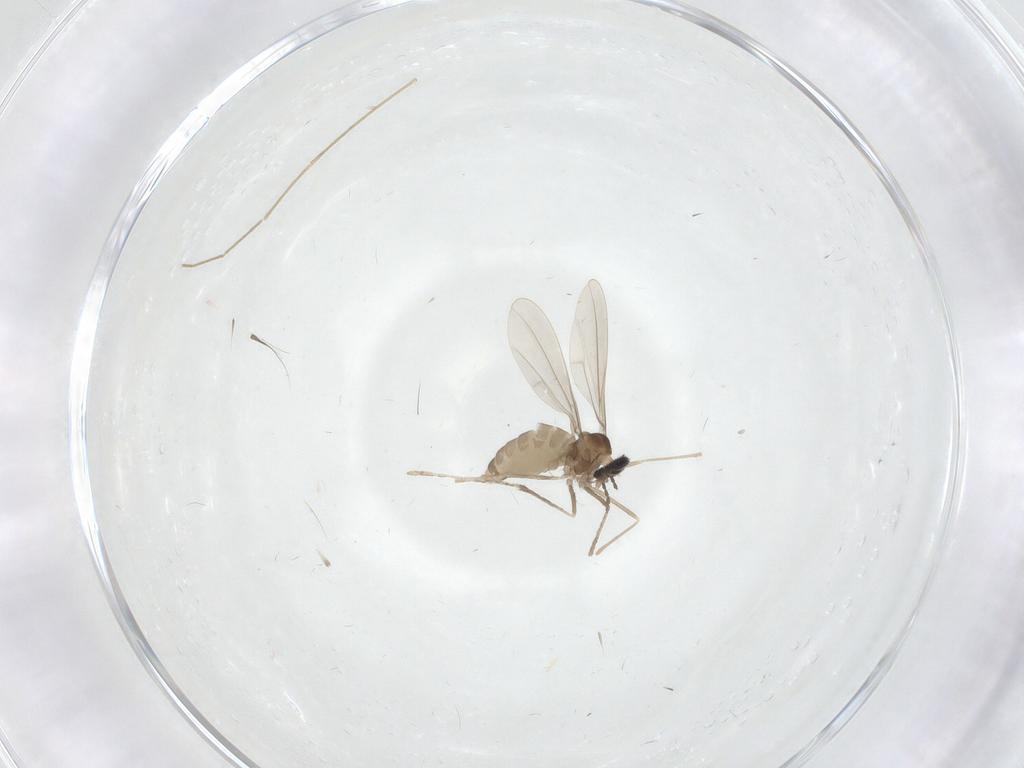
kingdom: Animalia
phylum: Arthropoda
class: Insecta
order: Diptera
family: Cecidomyiidae
